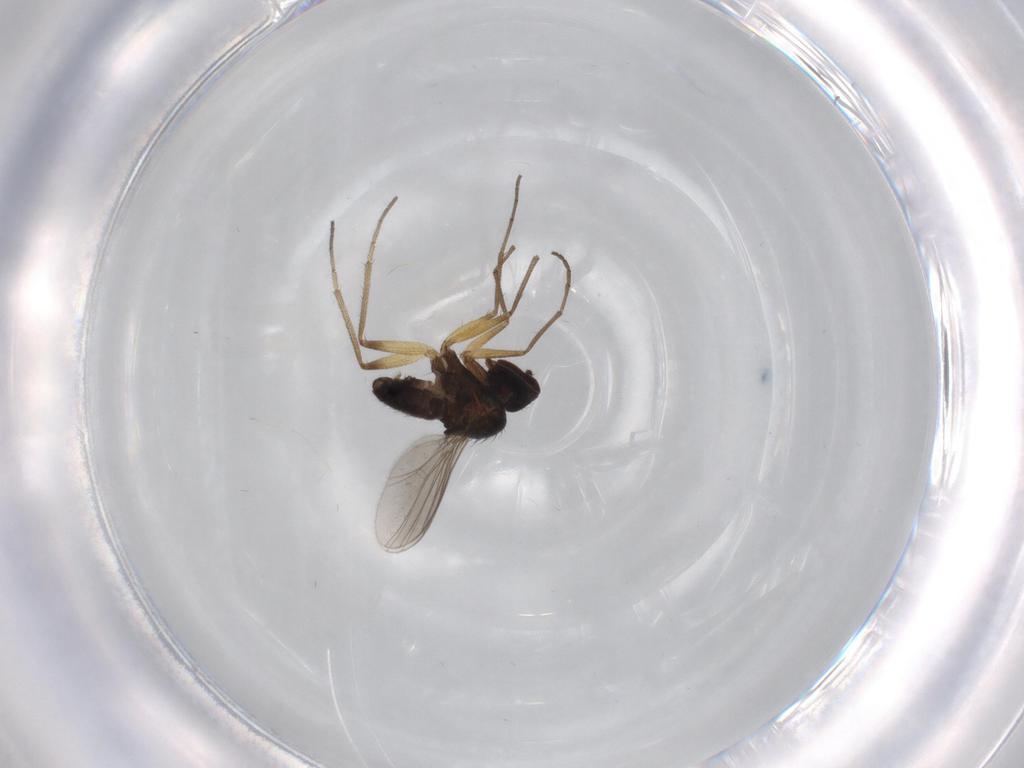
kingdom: Animalia
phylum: Arthropoda
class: Insecta
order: Diptera
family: Dolichopodidae
